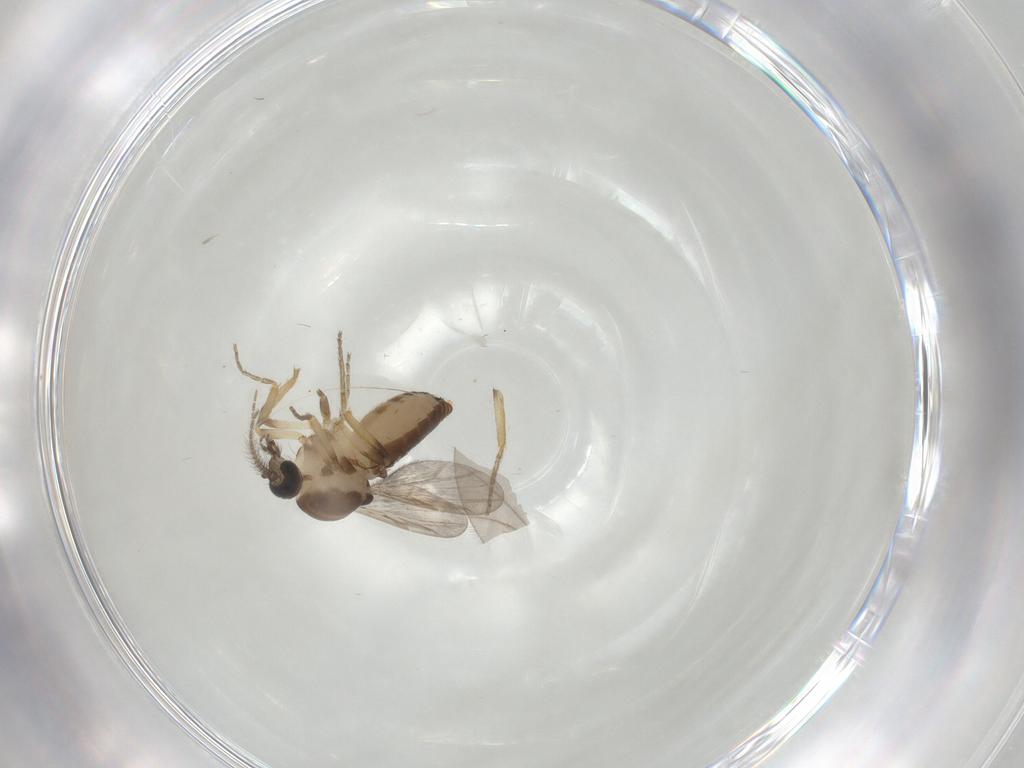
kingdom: Animalia
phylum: Arthropoda
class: Insecta
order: Diptera
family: Ceratopogonidae
